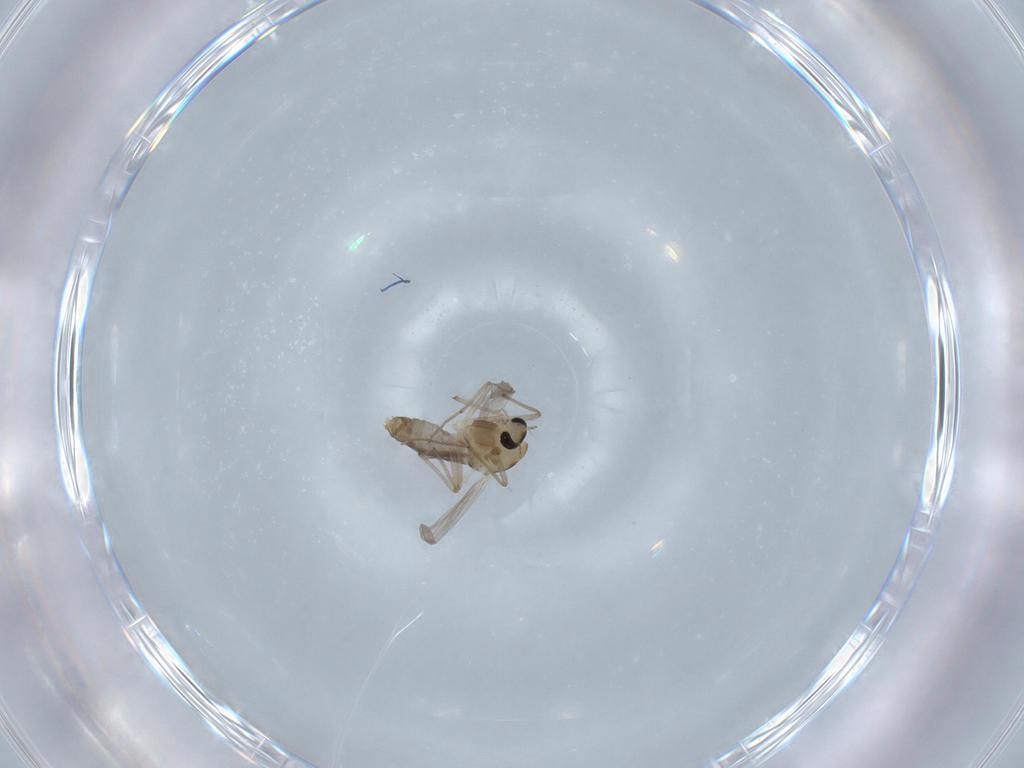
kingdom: Animalia
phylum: Arthropoda
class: Insecta
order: Diptera
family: Chironomidae
